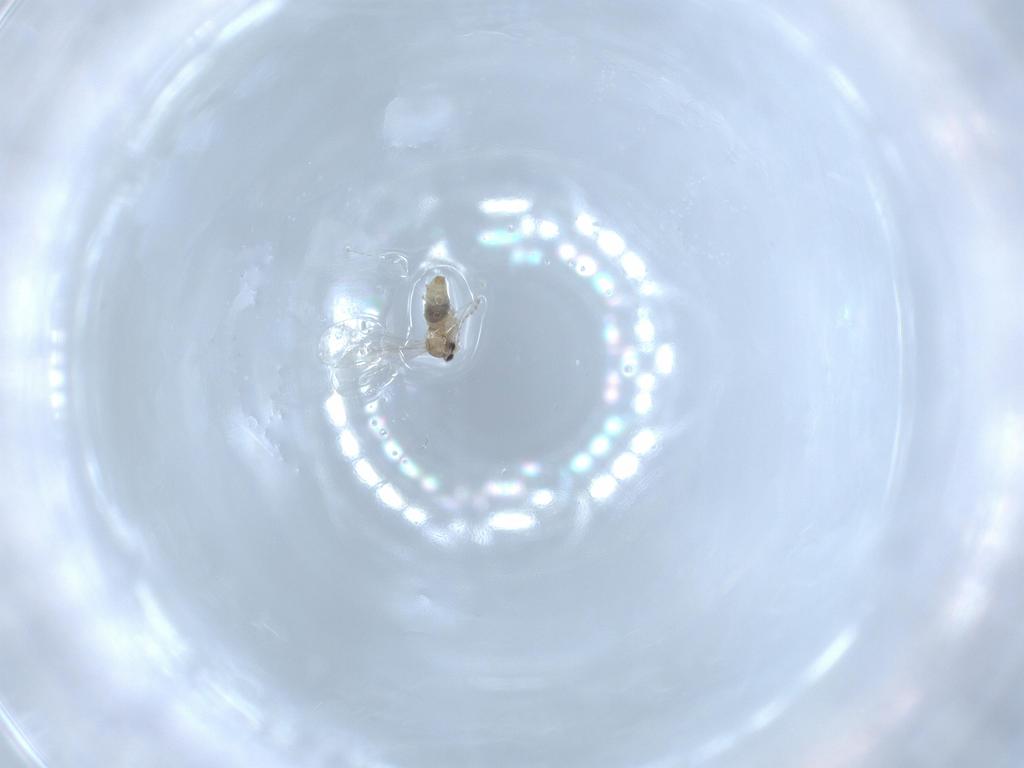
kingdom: Animalia
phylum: Arthropoda
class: Insecta
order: Diptera
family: Cecidomyiidae
